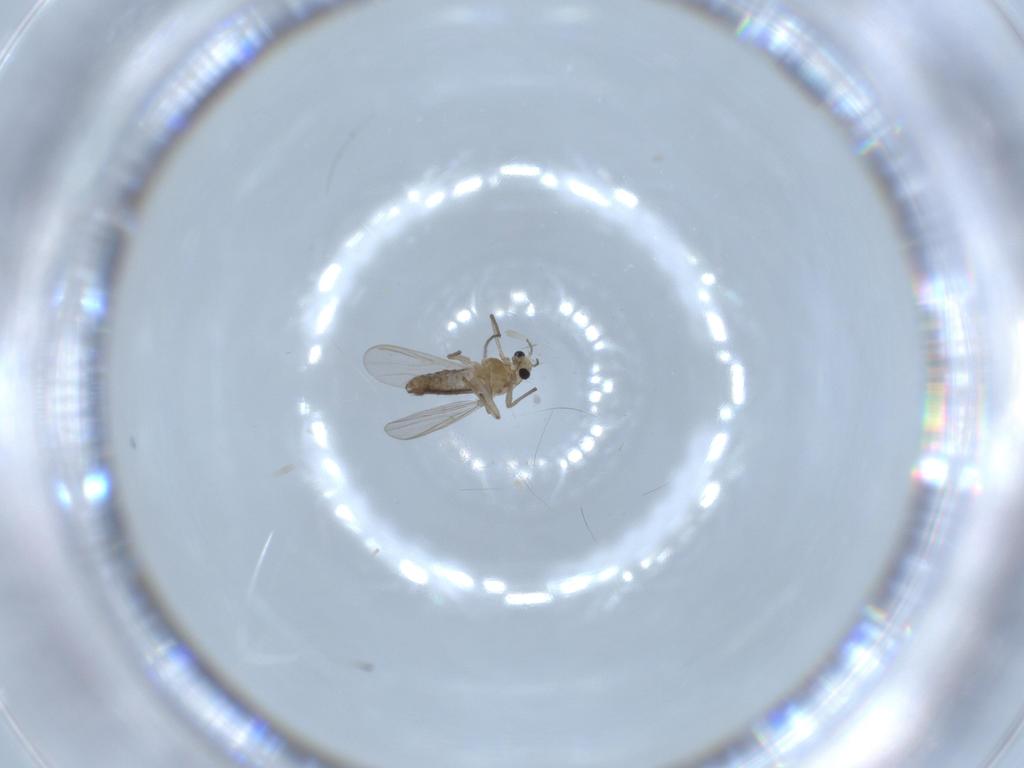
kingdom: Animalia
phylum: Arthropoda
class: Insecta
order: Diptera
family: Chironomidae
